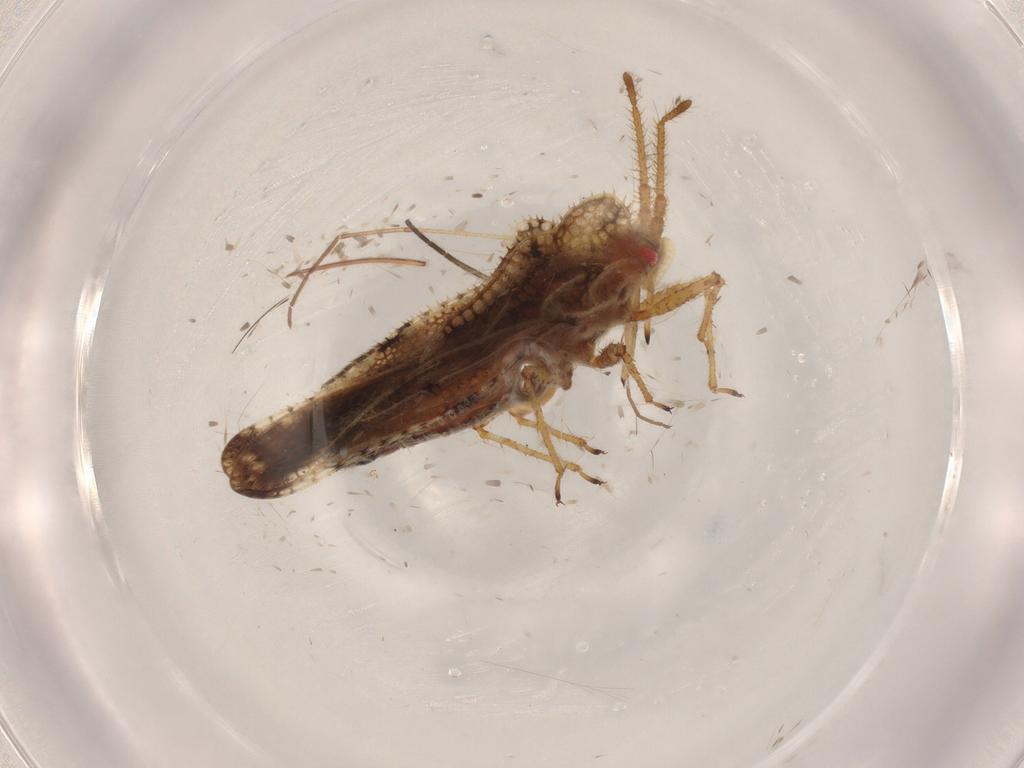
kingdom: Animalia
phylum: Arthropoda
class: Insecta
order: Hemiptera
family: Tingidae
